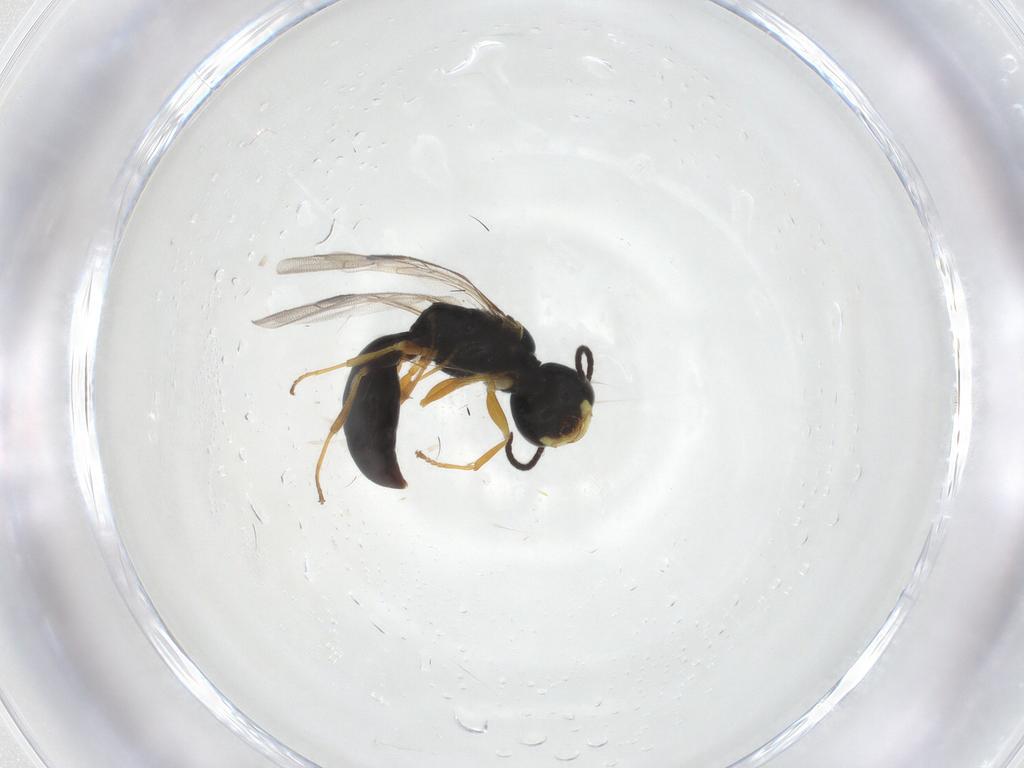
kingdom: Animalia
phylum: Arthropoda
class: Insecta
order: Hymenoptera
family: Pemphredonidae
